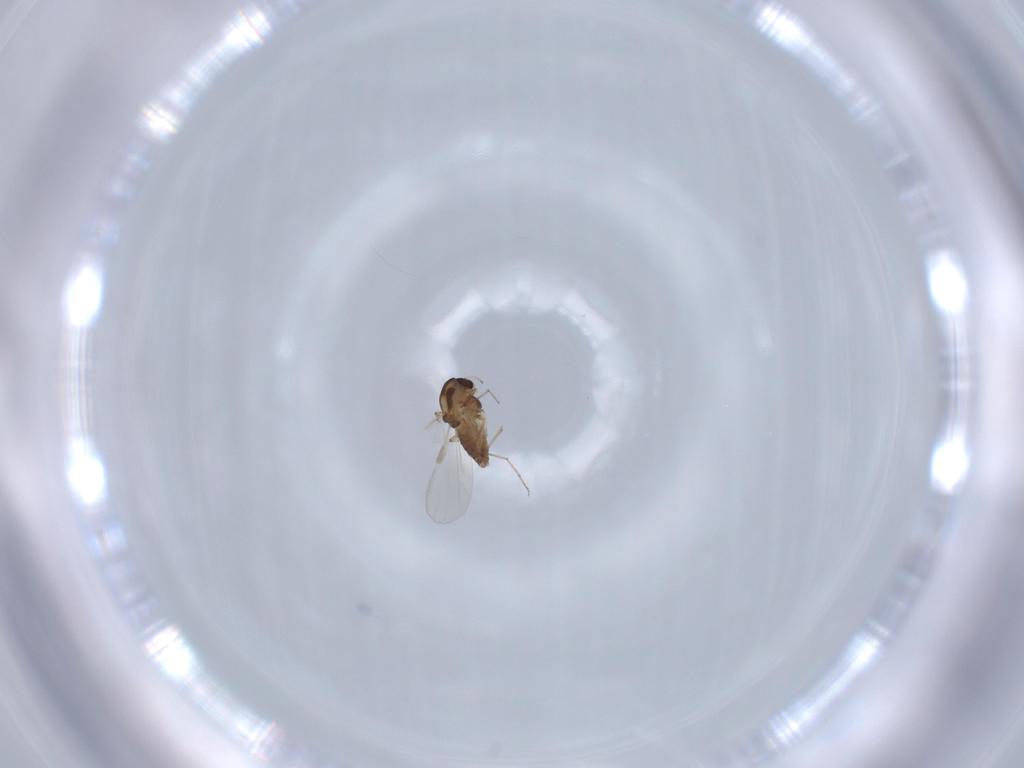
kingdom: Animalia
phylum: Arthropoda
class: Insecta
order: Diptera
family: Chironomidae
